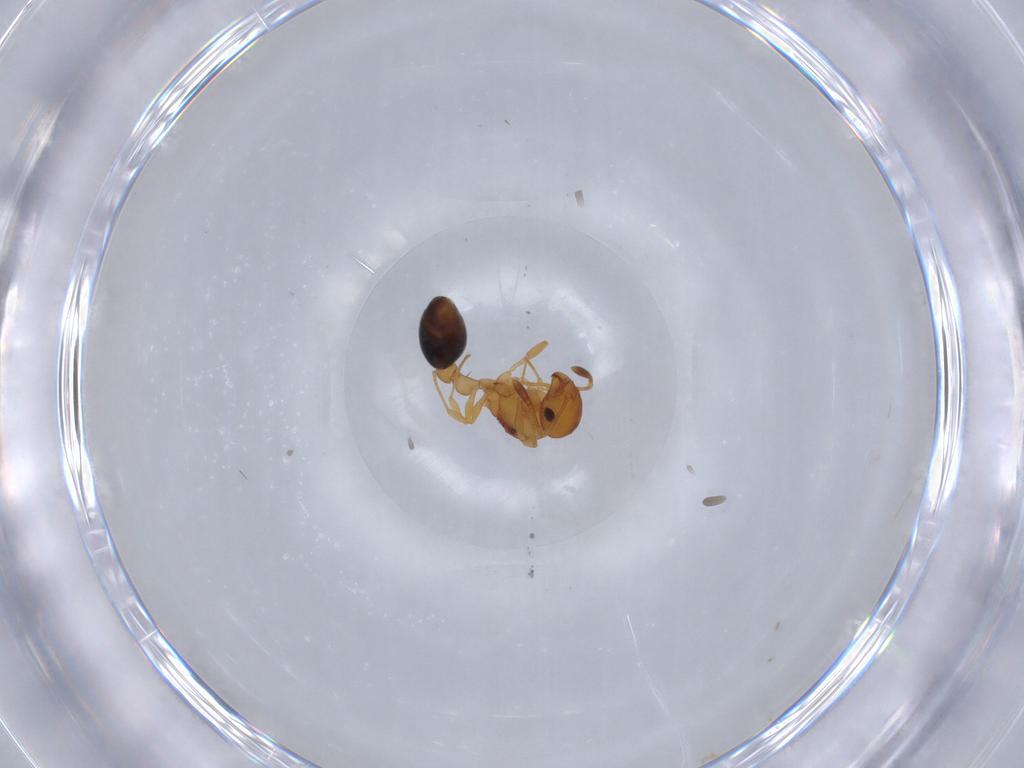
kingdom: Animalia
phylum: Arthropoda
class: Insecta
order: Hymenoptera
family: Formicidae
